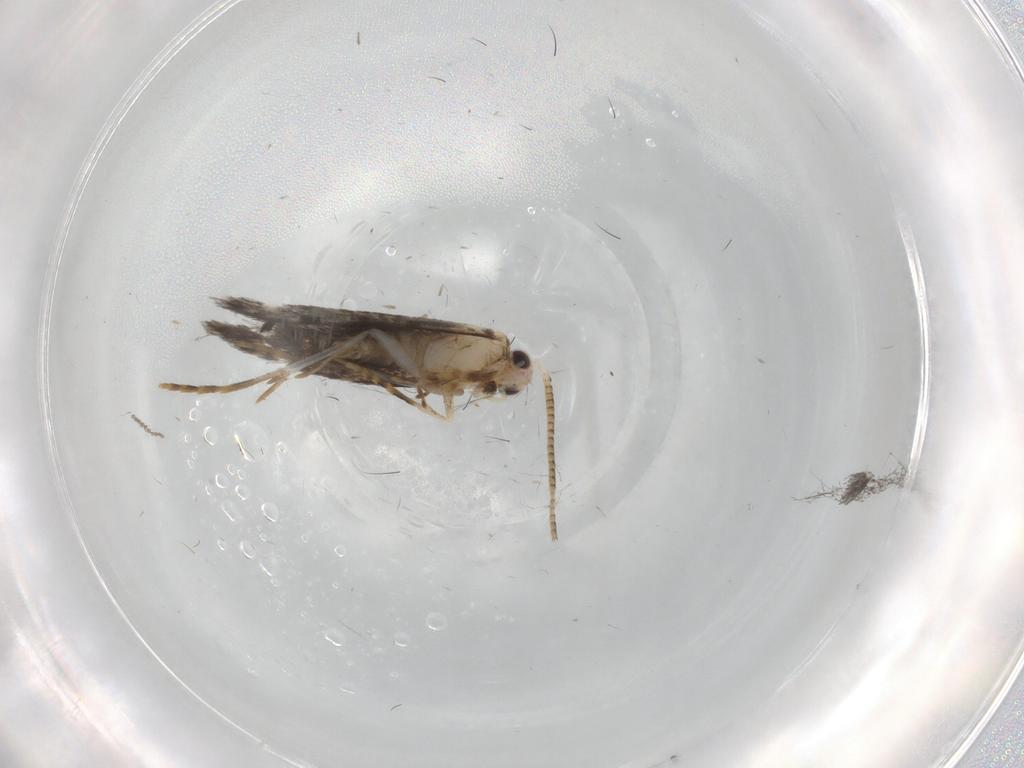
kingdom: Animalia
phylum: Arthropoda
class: Insecta
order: Lepidoptera
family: Tineidae
